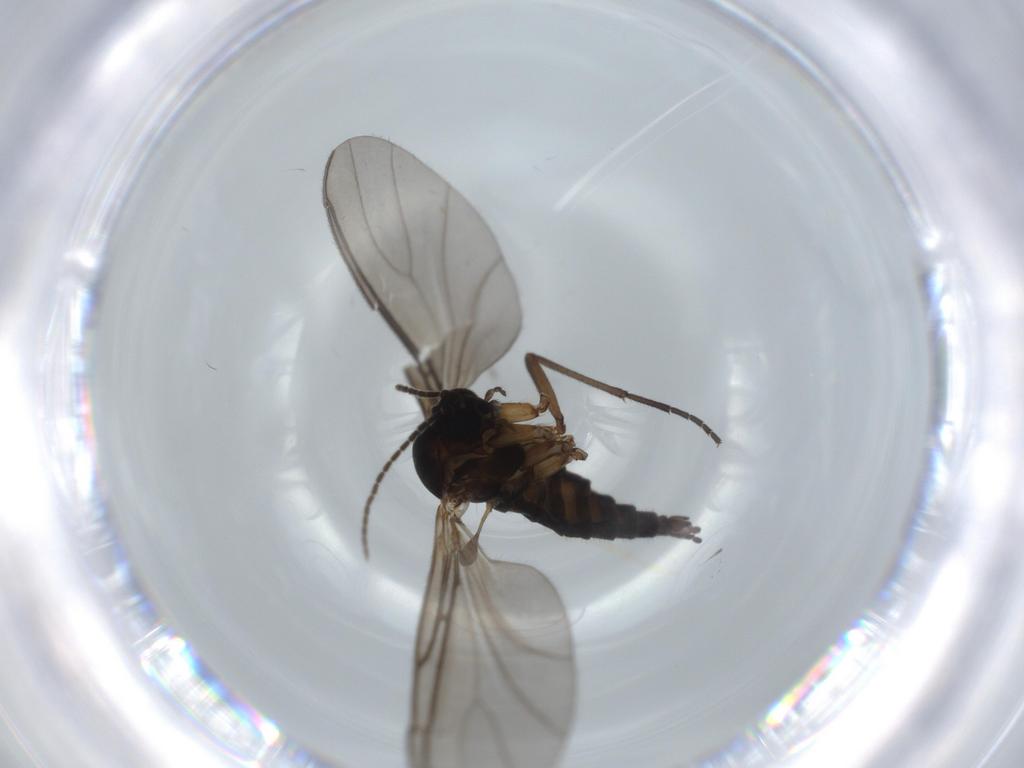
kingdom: Animalia
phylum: Arthropoda
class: Insecta
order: Diptera
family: Sciaridae
